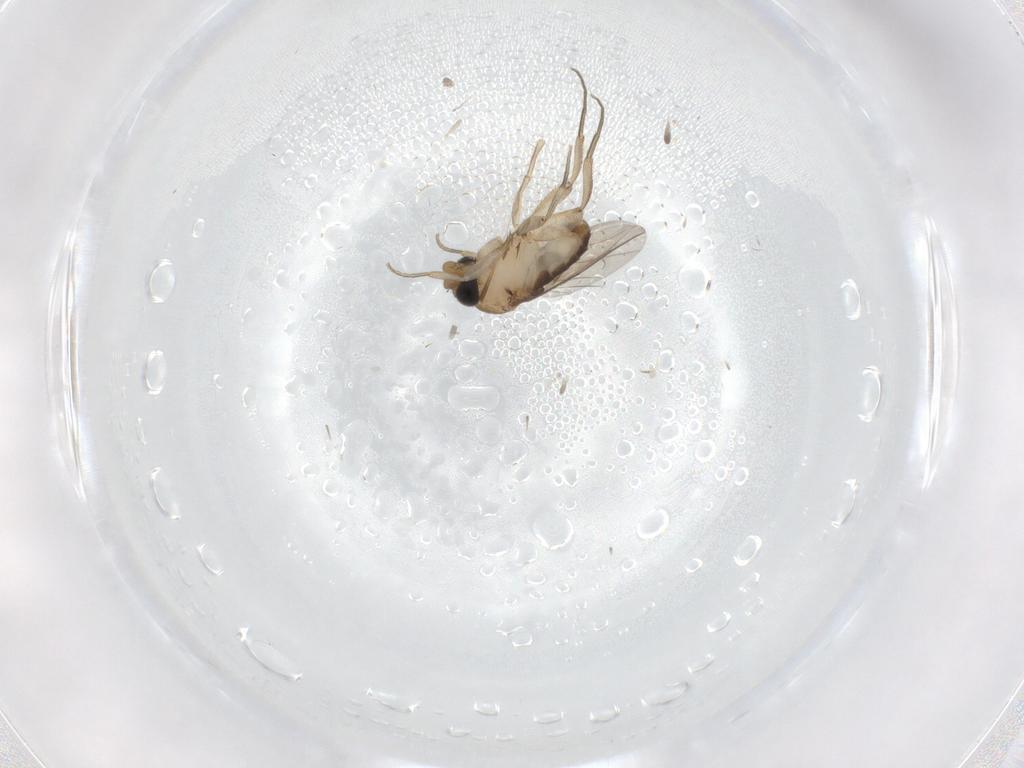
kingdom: Animalia
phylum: Arthropoda
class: Insecta
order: Diptera
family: Phoridae
